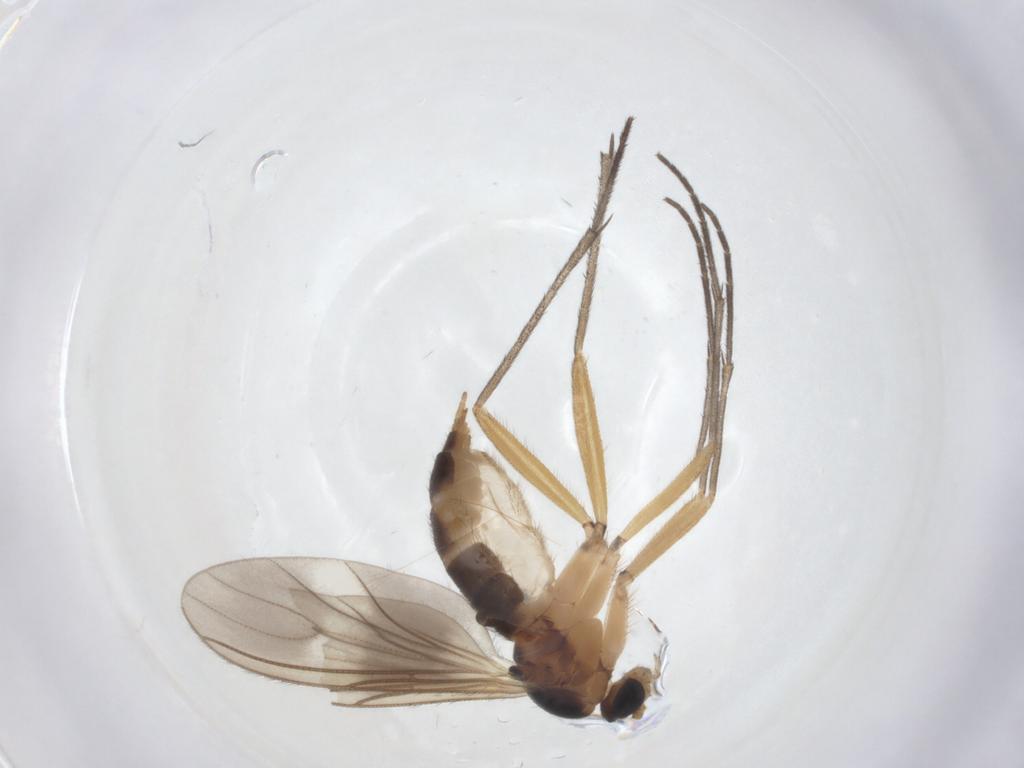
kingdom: Animalia
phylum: Arthropoda
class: Insecta
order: Diptera
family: Sciaridae
